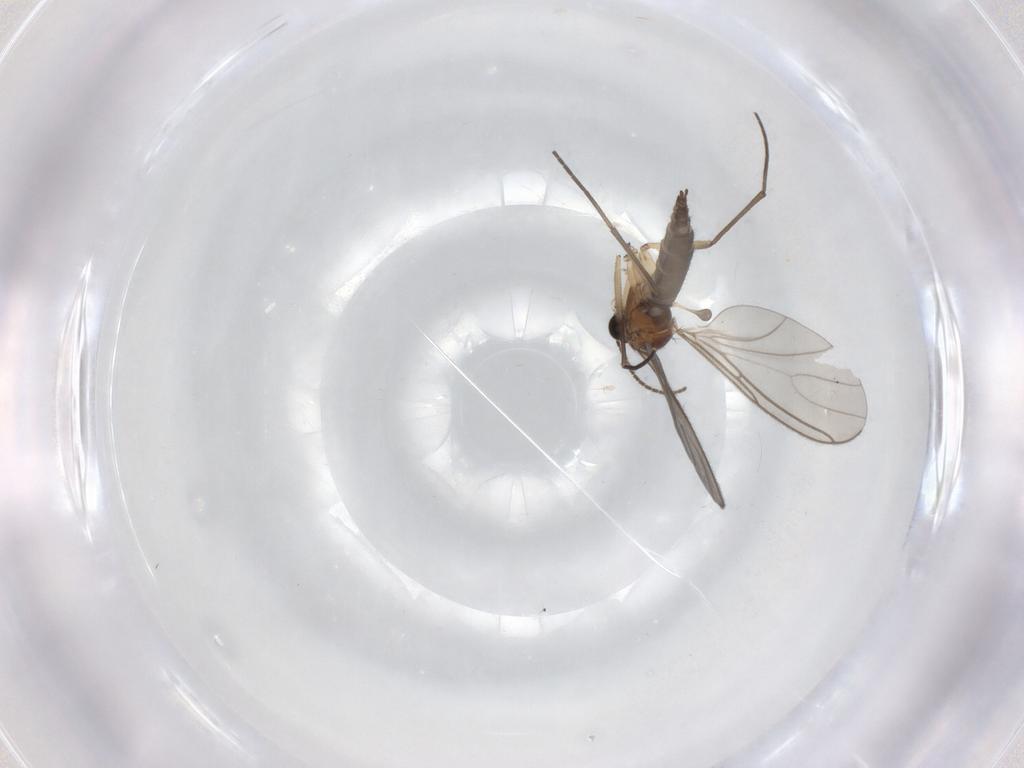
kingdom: Animalia
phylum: Arthropoda
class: Insecta
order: Diptera
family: Sciaridae
